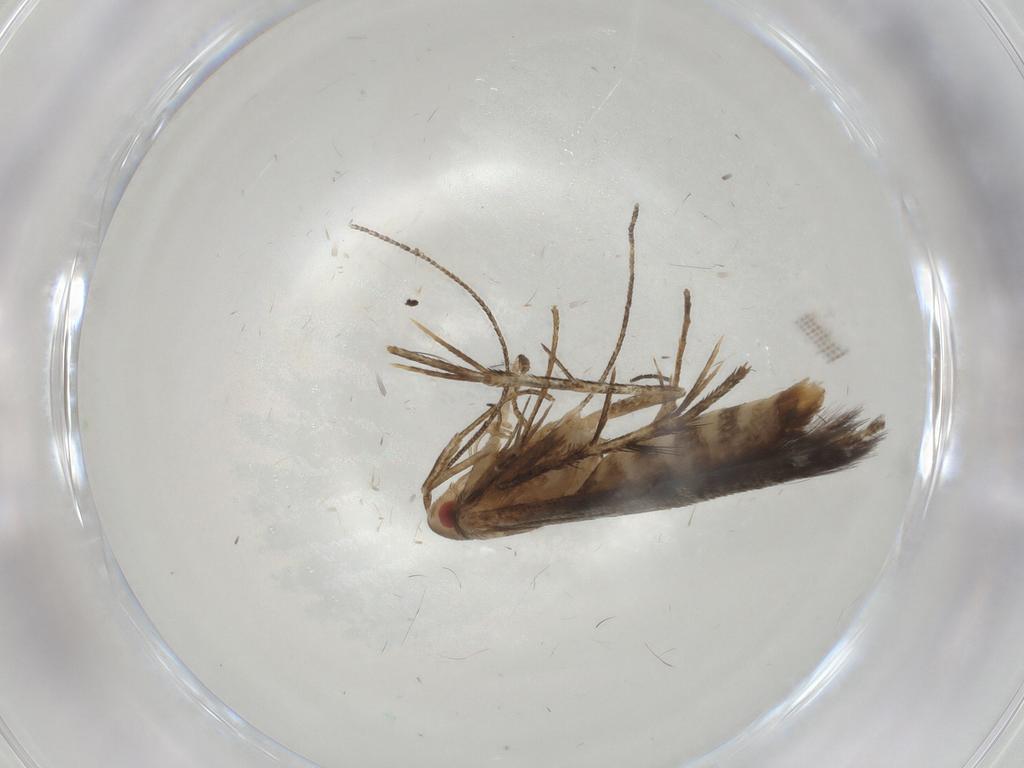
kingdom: Animalia
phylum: Arthropoda
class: Insecta
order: Lepidoptera
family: Cosmopterigidae
